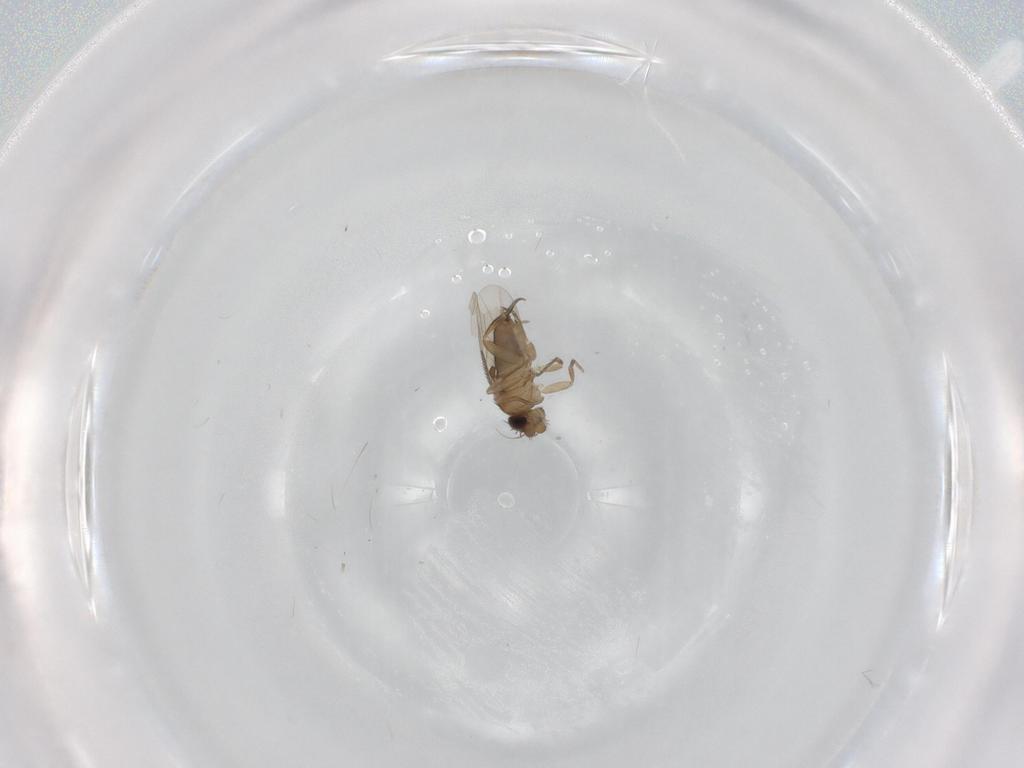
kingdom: Animalia
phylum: Arthropoda
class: Insecta
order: Diptera
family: Phoridae
